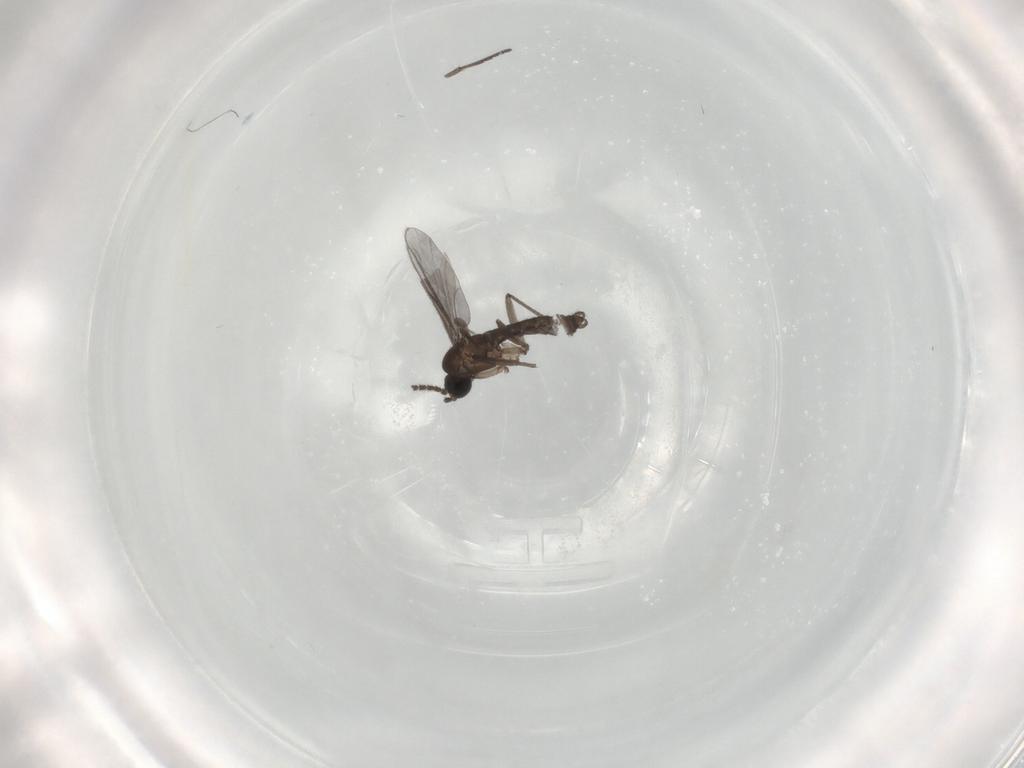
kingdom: Animalia
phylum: Arthropoda
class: Insecta
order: Diptera
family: Sciaridae
